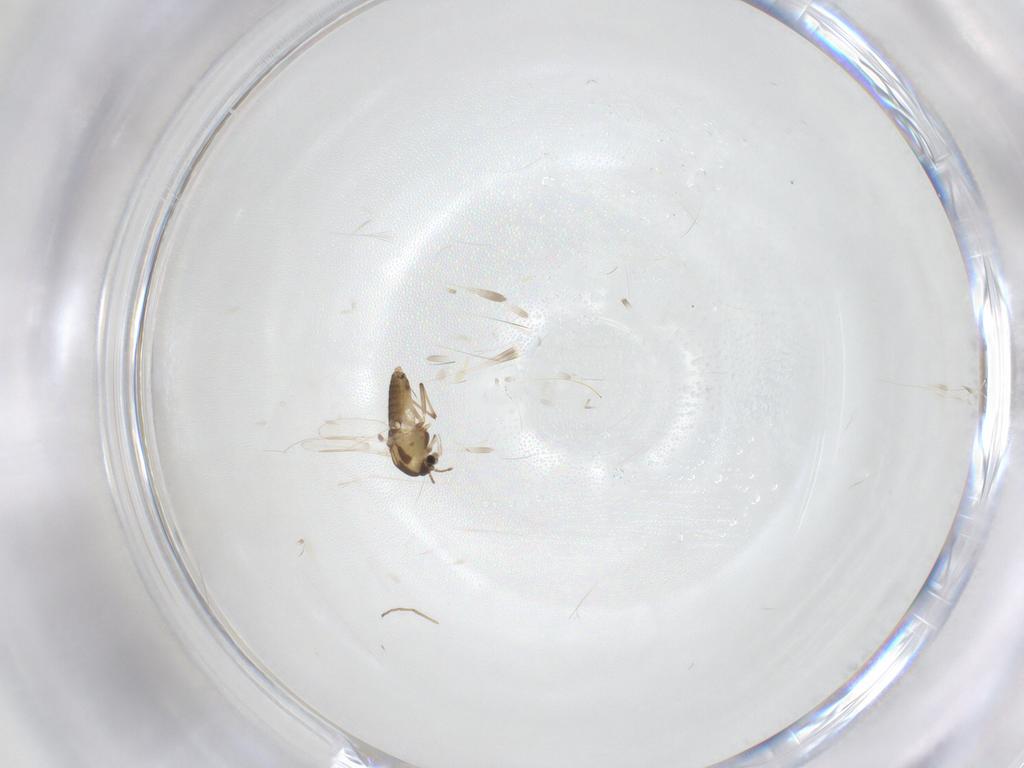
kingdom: Animalia
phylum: Arthropoda
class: Insecta
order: Diptera
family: Chironomidae
